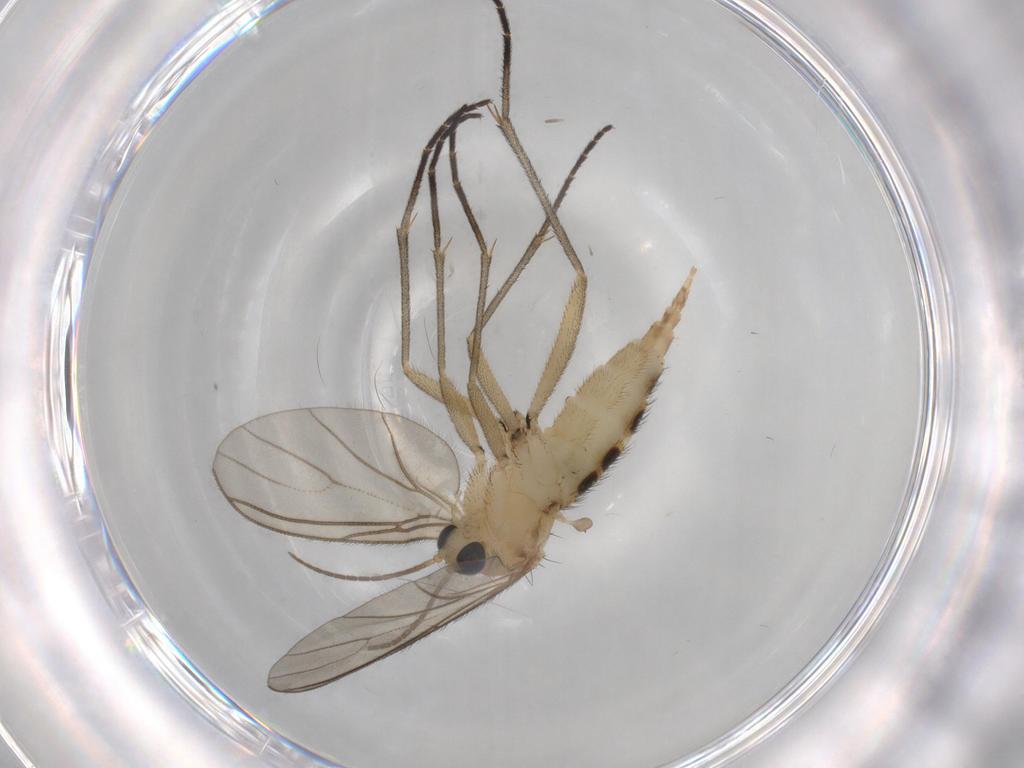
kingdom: Animalia
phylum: Arthropoda
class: Insecta
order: Diptera
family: Sciaridae
